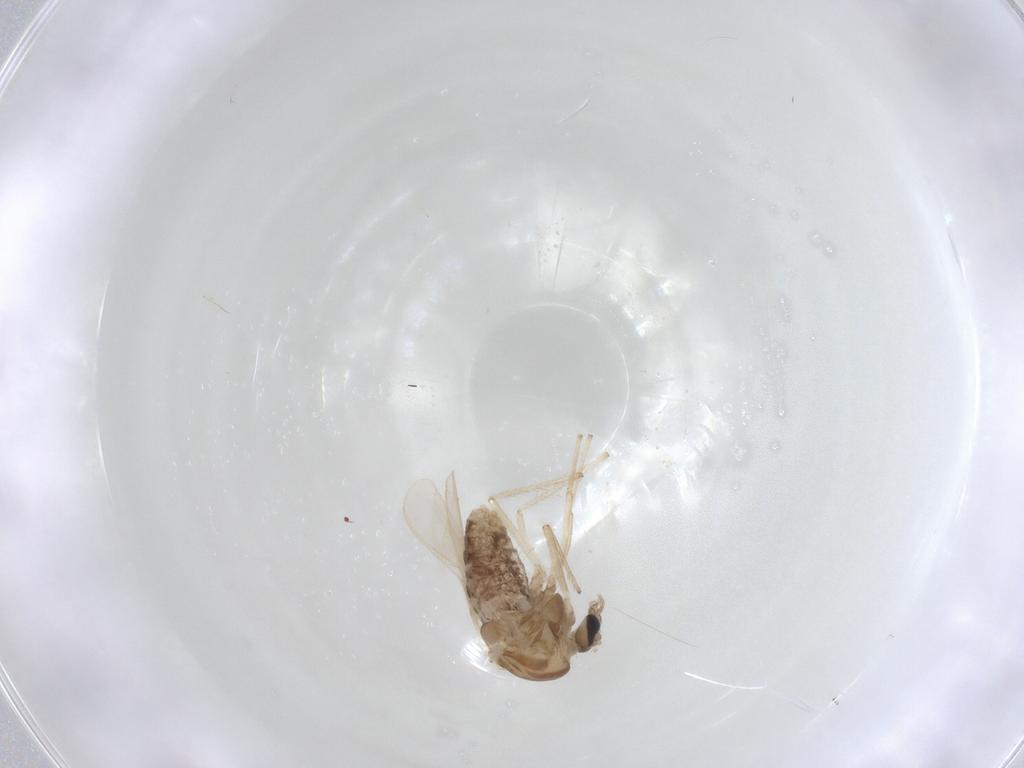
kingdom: Animalia
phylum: Arthropoda
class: Insecta
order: Diptera
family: Chironomidae
